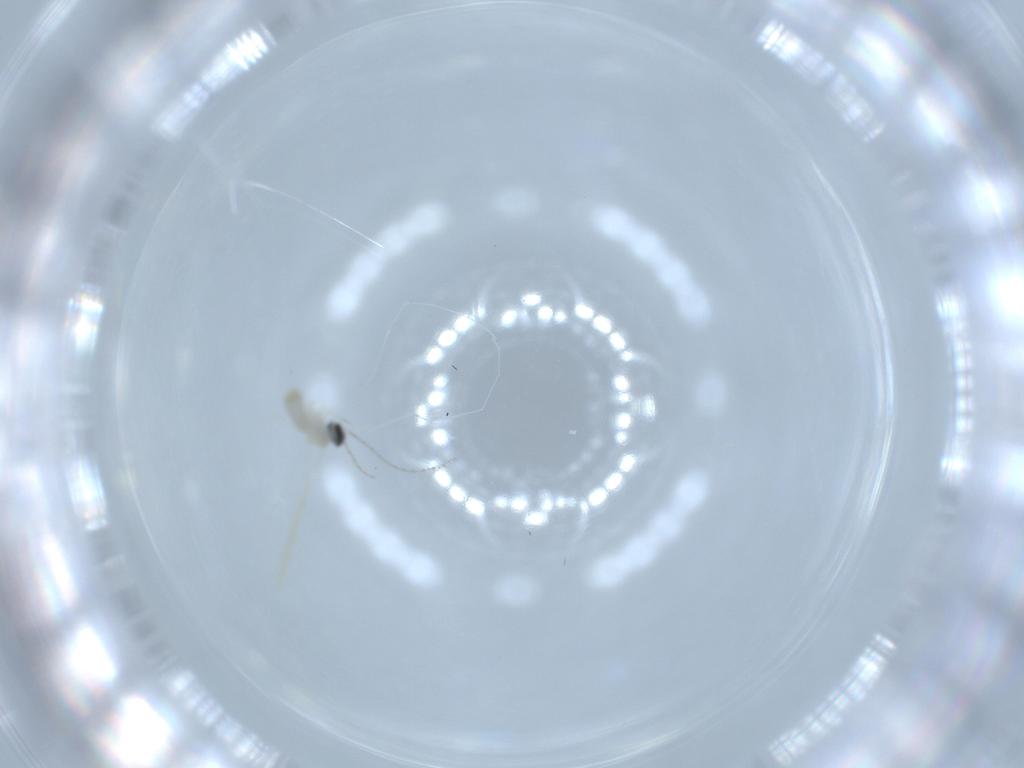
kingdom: Animalia
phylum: Arthropoda
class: Insecta
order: Diptera
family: Cecidomyiidae
